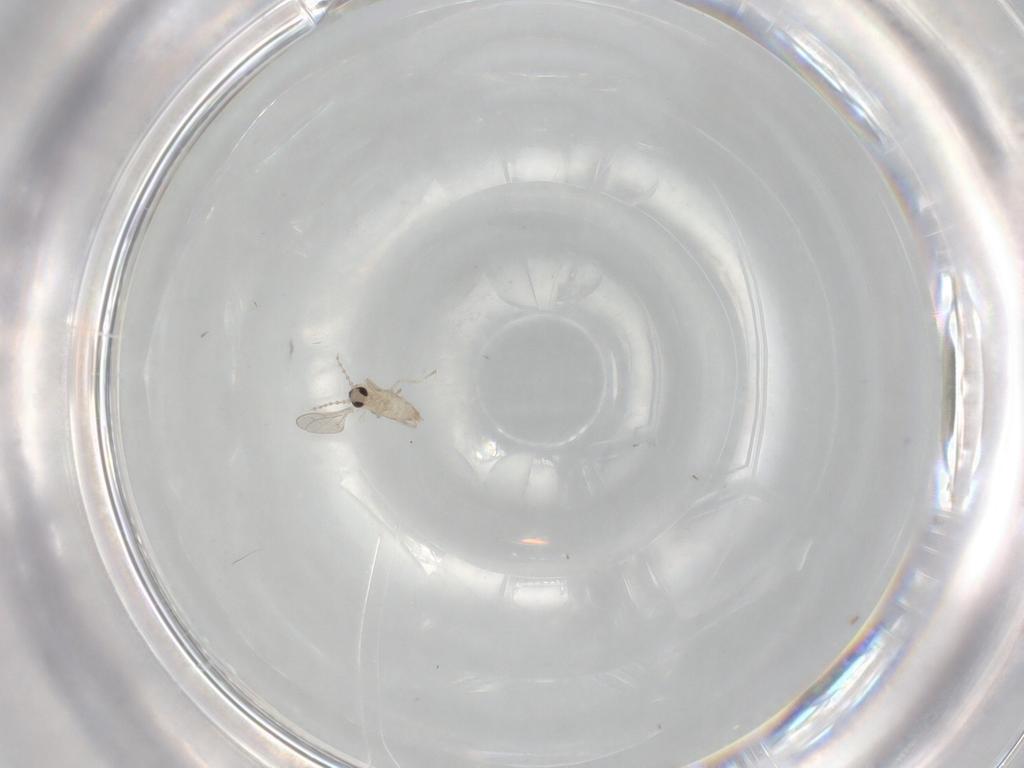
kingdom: Animalia
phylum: Arthropoda
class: Insecta
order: Diptera
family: Cecidomyiidae
